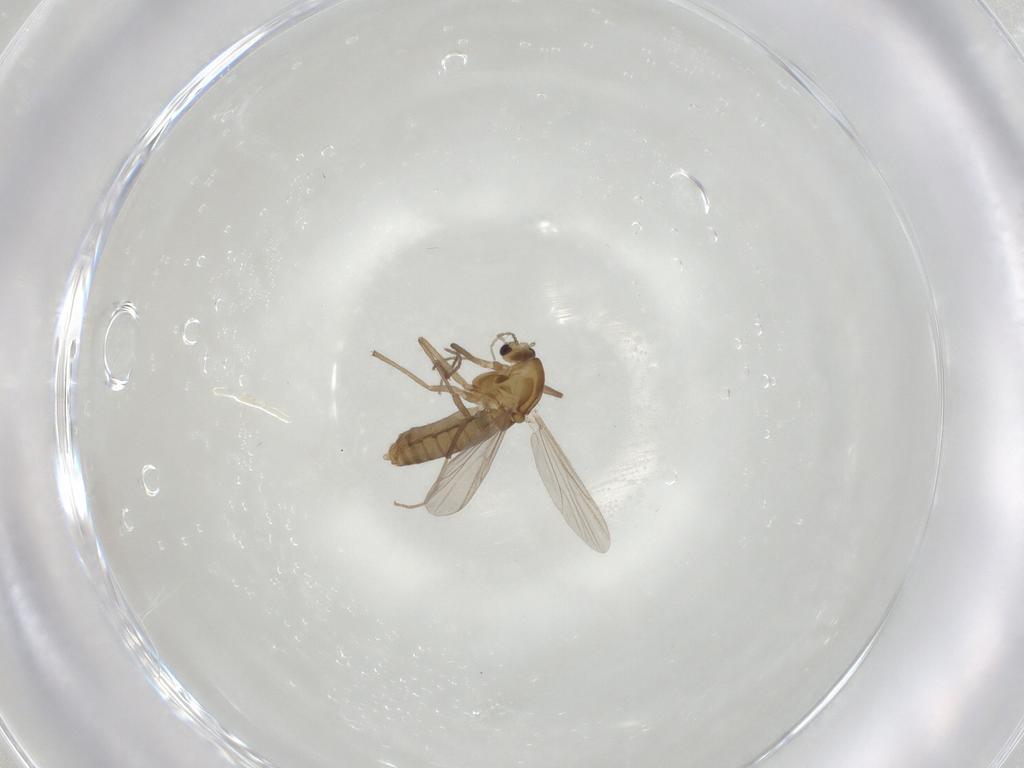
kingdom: Animalia
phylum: Arthropoda
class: Insecta
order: Diptera
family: Chironomidae
